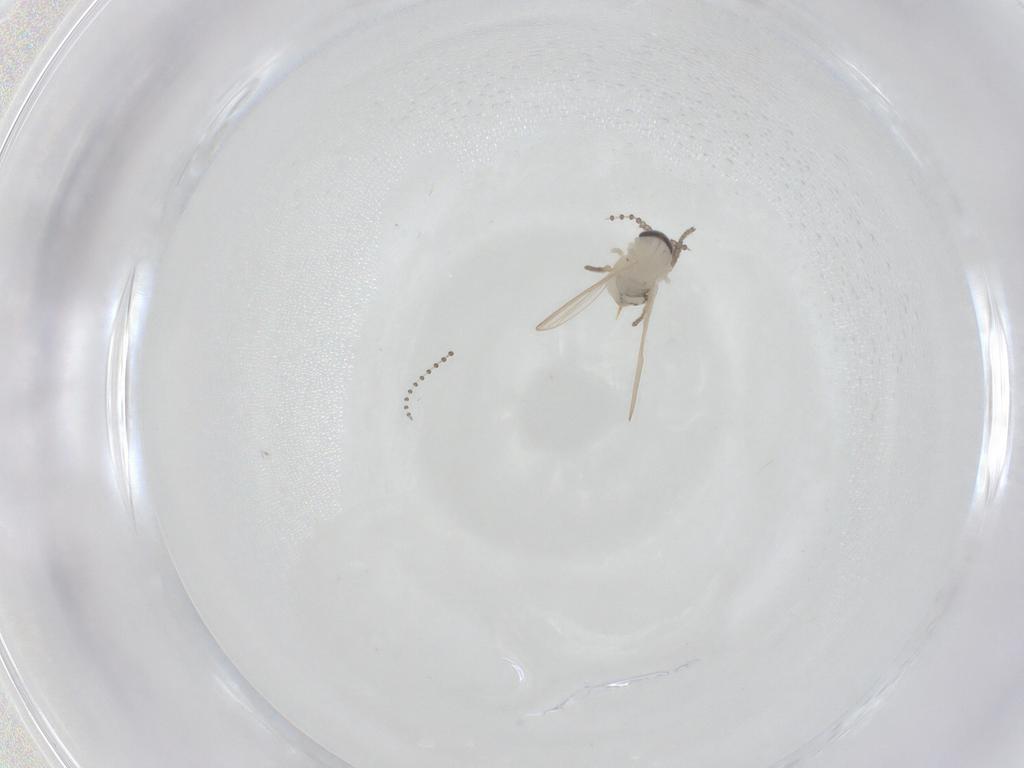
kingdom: Animalia
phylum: Arthropoda
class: Insecta
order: Diptera
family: Psychodidae
